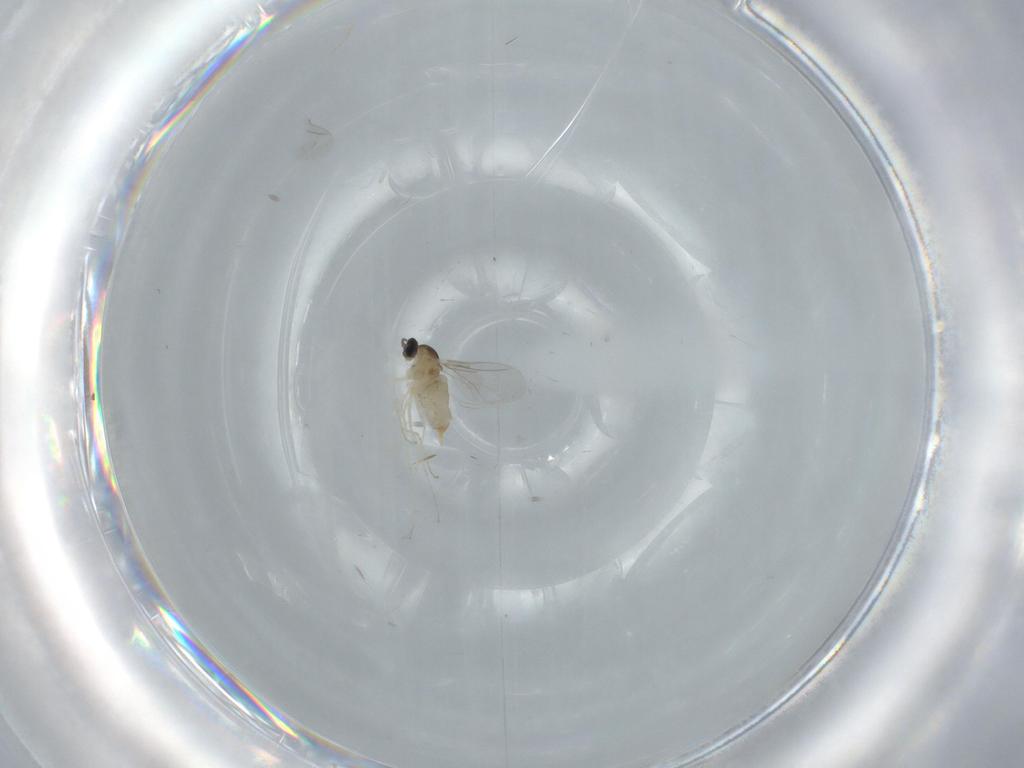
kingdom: Animalia
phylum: Arthropoda
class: Insecta
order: Diptera
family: Cecidomyiidae
